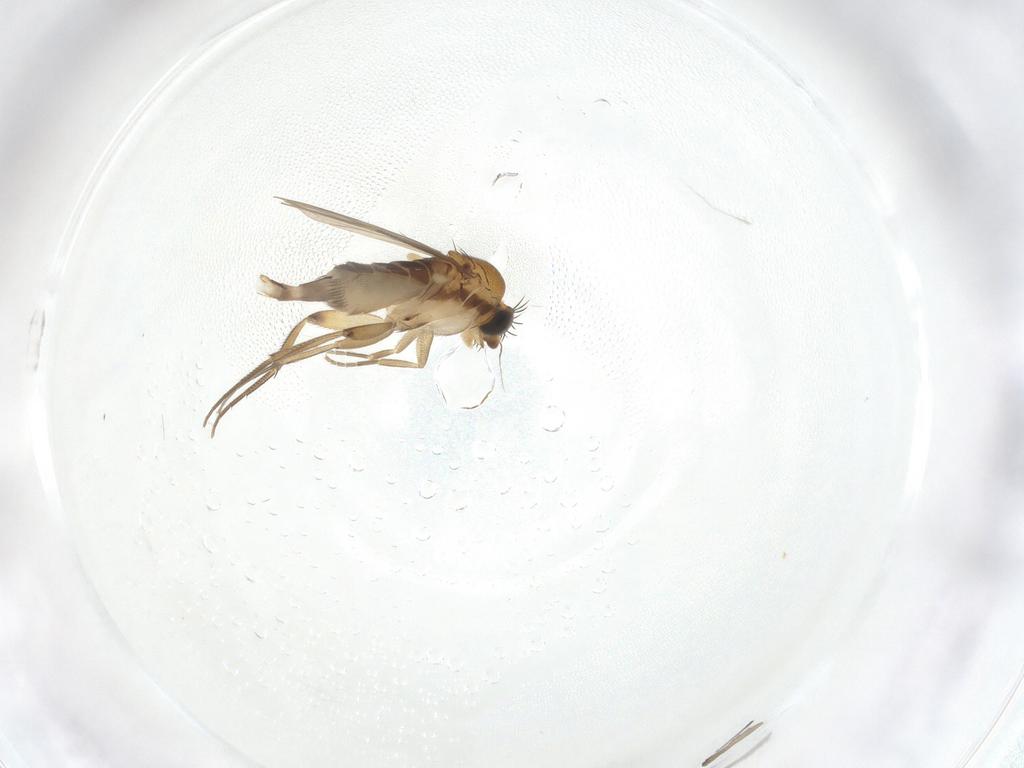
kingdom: Animalia
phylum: Arthropoda
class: Insecta
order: Diptera
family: Phoridae
